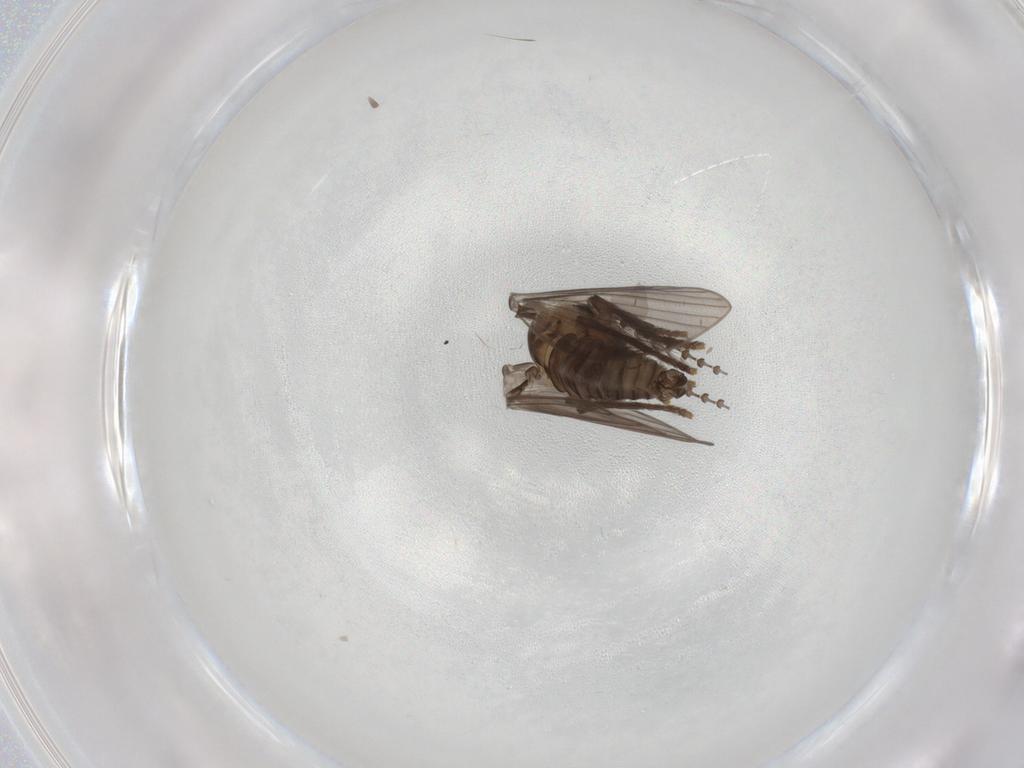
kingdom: Animalia
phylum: Arthropoda
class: Insecta
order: Diptera
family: Psychodidae
